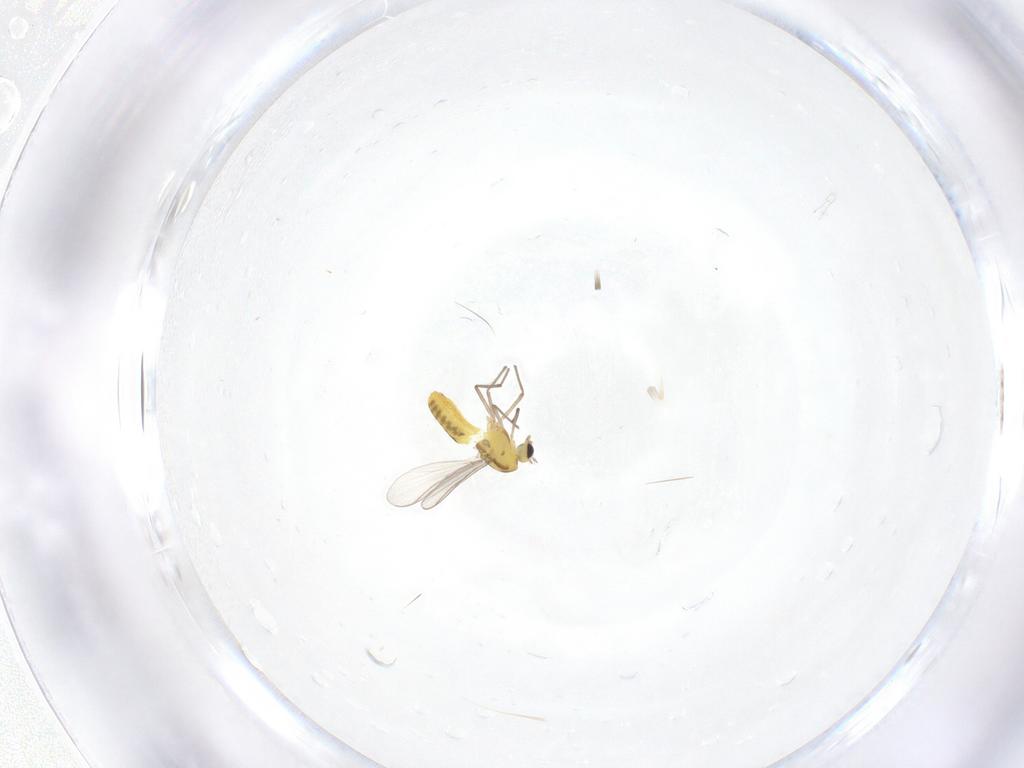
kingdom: Animalia
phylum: Arthropoda
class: Insecta
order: Diptera
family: Chironomidae
